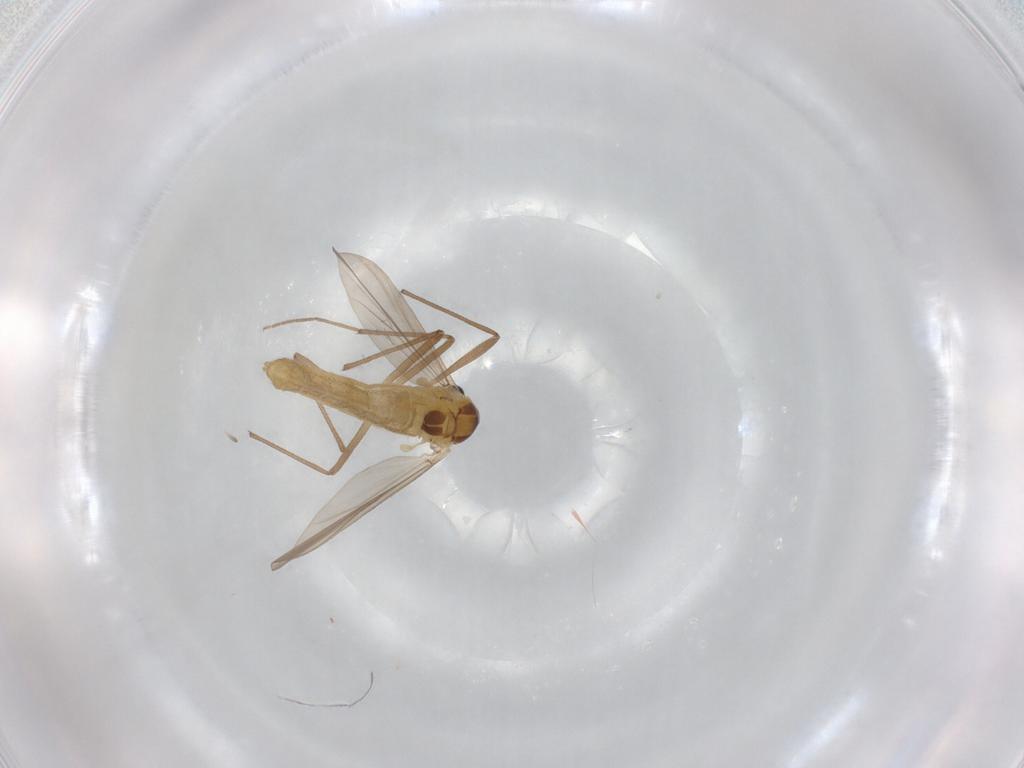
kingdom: Animalia
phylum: Arthropoda
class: Insecta
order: Diptera
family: Chironomidae
